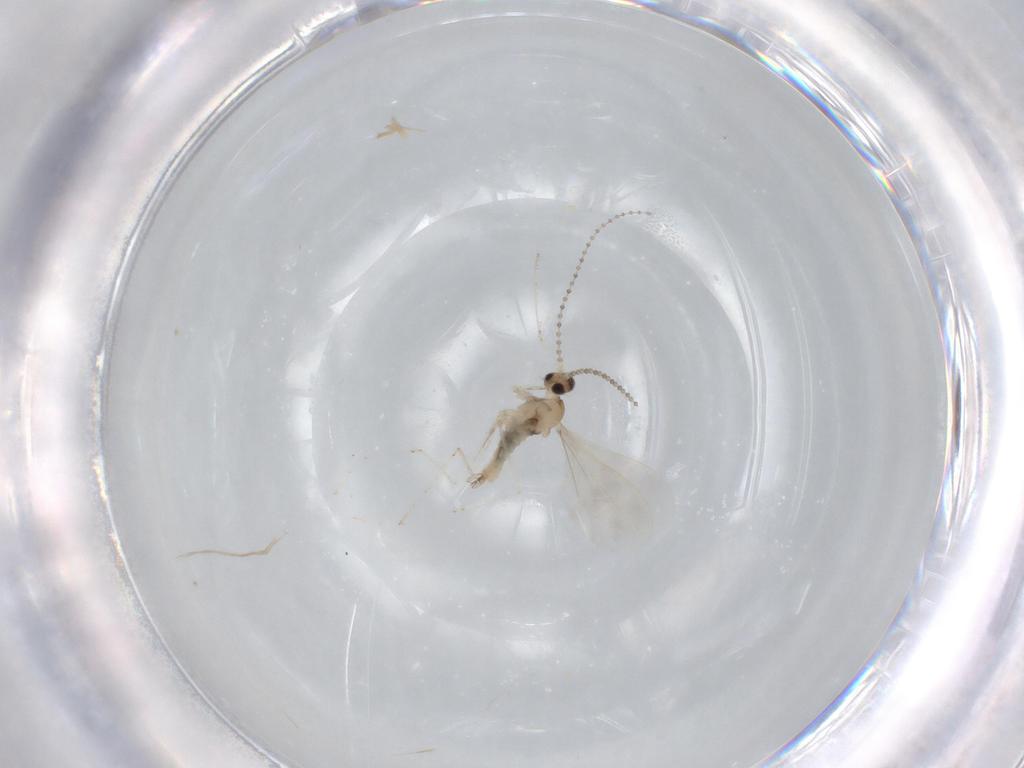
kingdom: Animalia
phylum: Arthropoda
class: Insecta
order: Diptera
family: Cecidomyiidae
